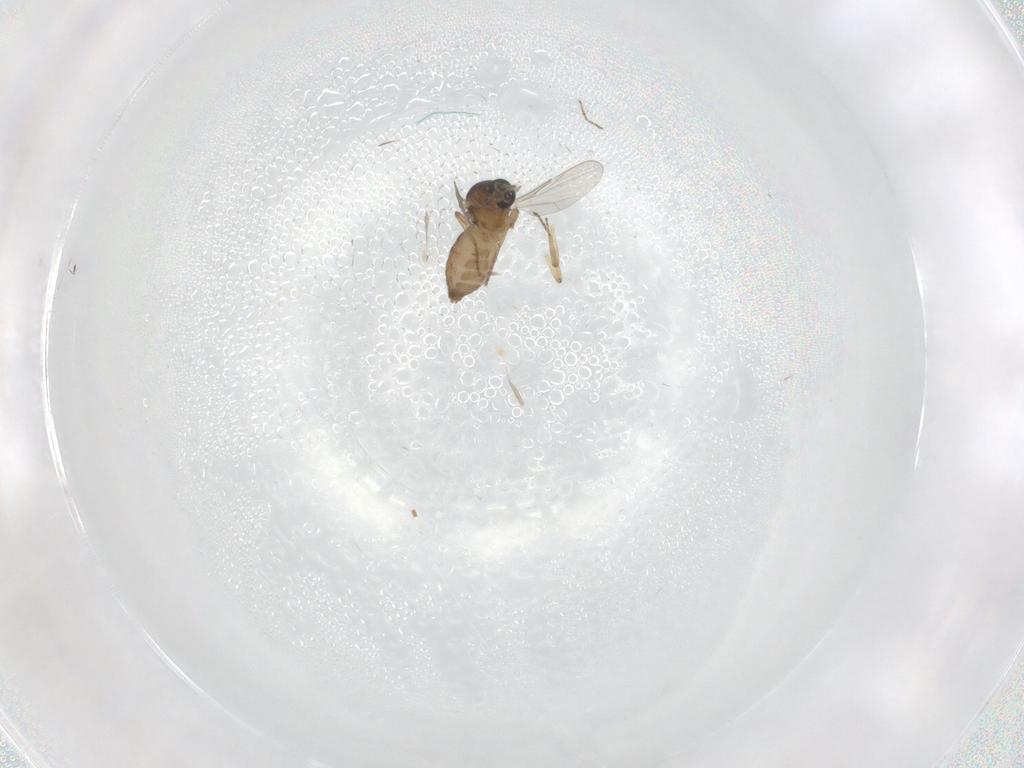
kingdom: Animalia
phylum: Arthropoda
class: Insecta
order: Diptera
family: Ceratopogonidae
